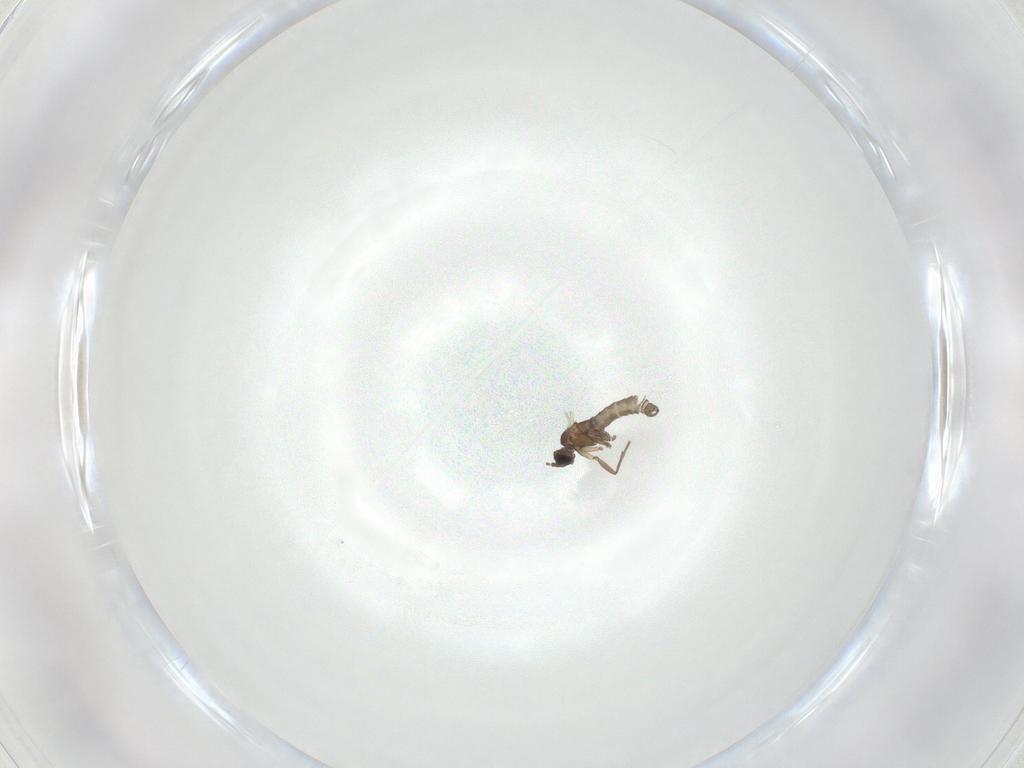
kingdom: Animalia
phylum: Arthropoda
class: Insecta
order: Diptera
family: Sciaridae
